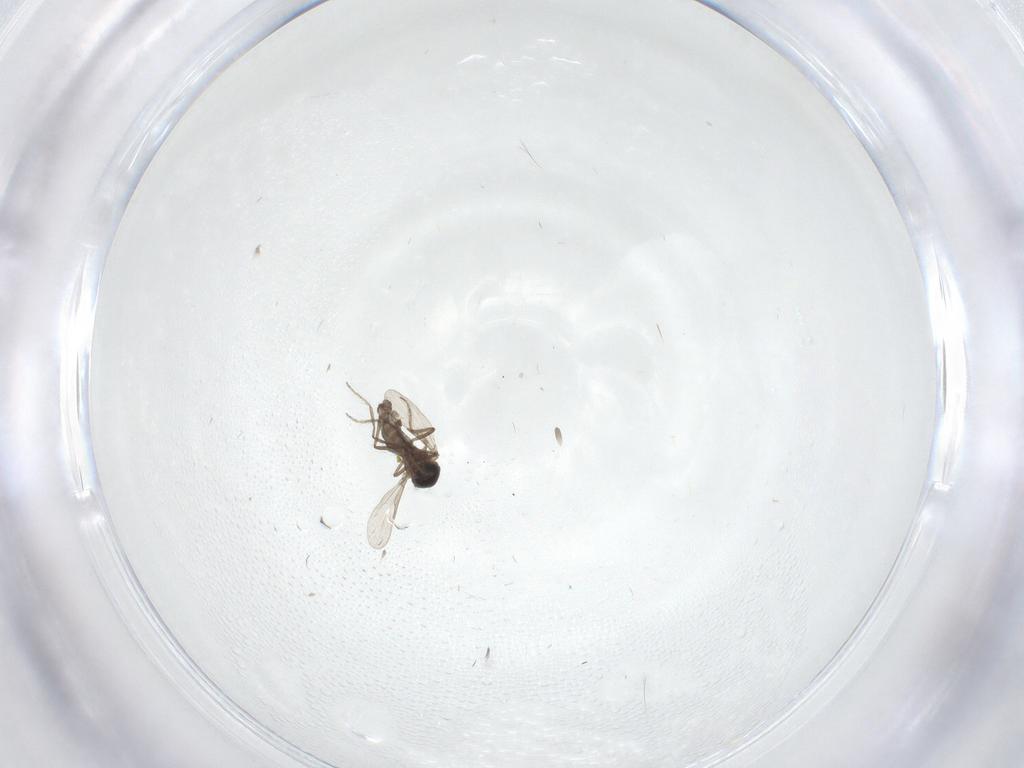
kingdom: Animalia
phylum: Arthropoda
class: Insecta
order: Diptera
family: Ceratopogonidae
